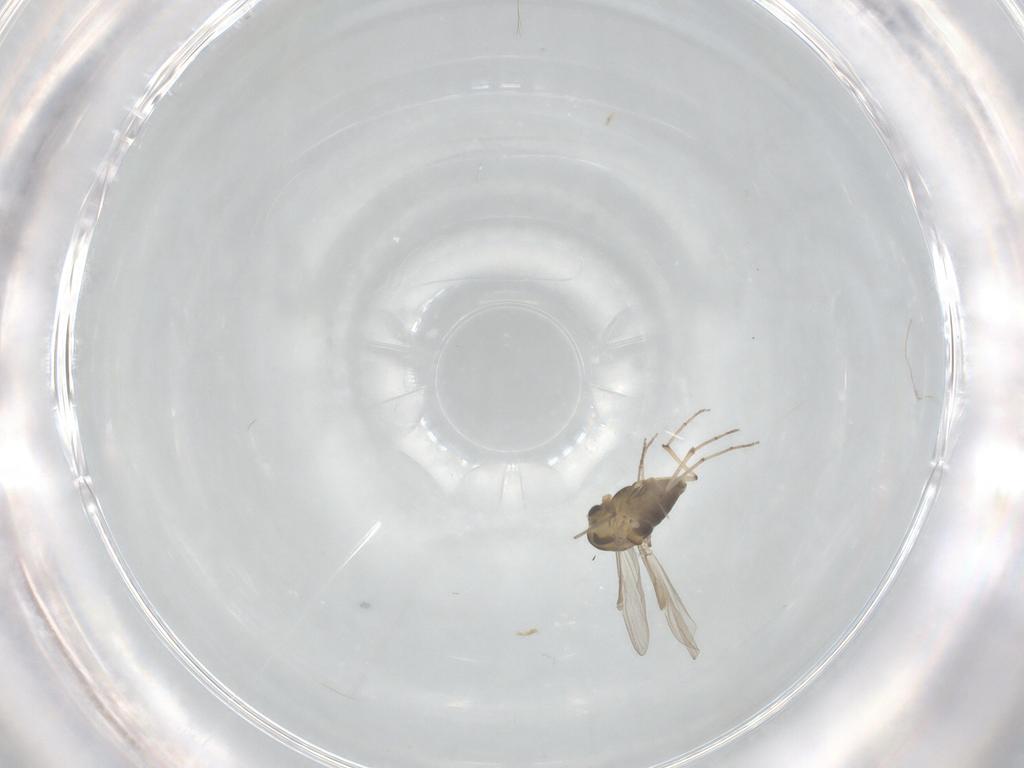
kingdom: Animalia
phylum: Arthropoda
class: Insecta
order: Diptera
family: Chironomidae
